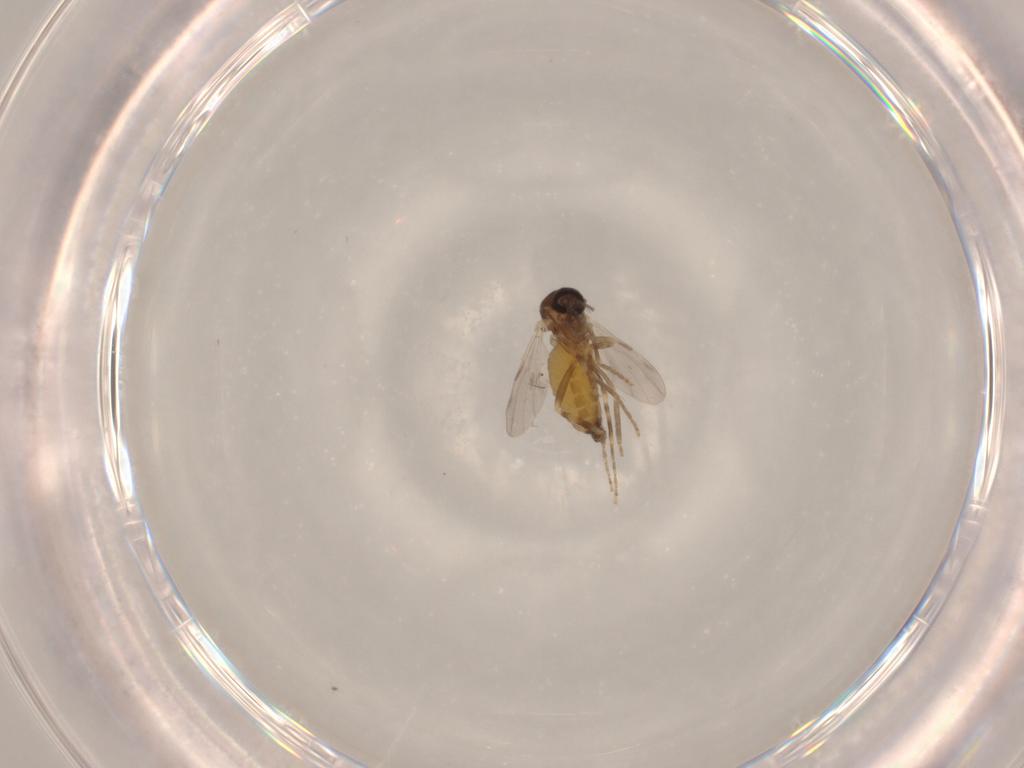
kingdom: Animalia
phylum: Arthropoda
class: Insecta
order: Diptera
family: Ceratopogonidae
